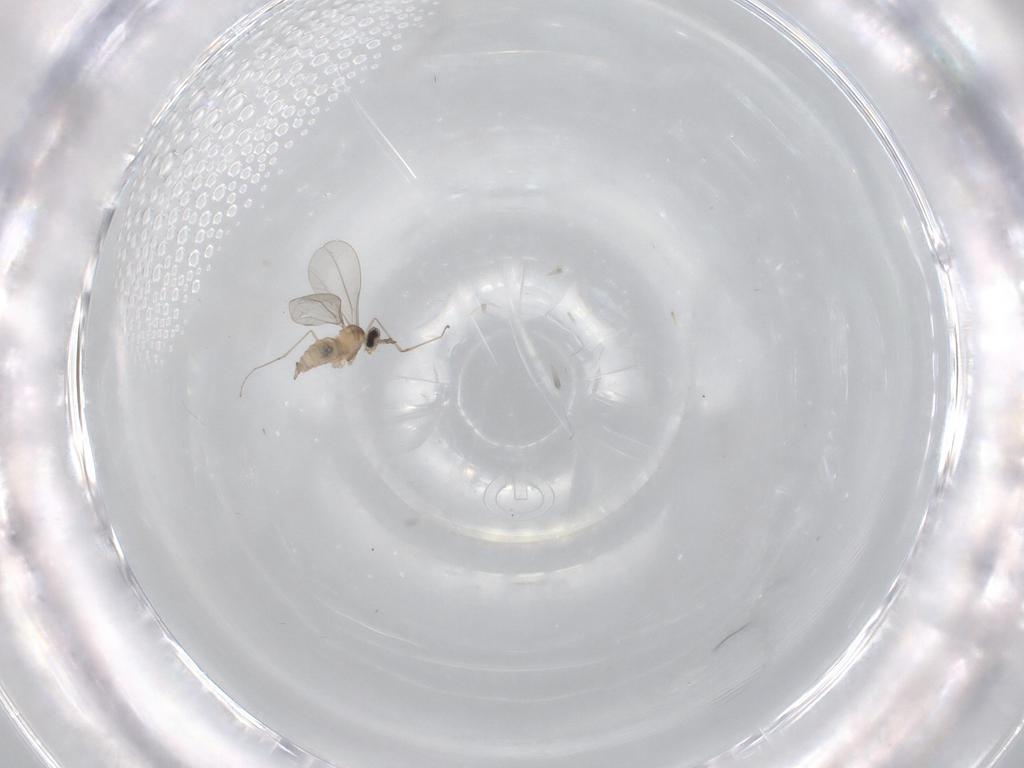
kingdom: Animalia
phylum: Arthropoda
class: Insecta
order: Diptera
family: Cecidomyiidae
